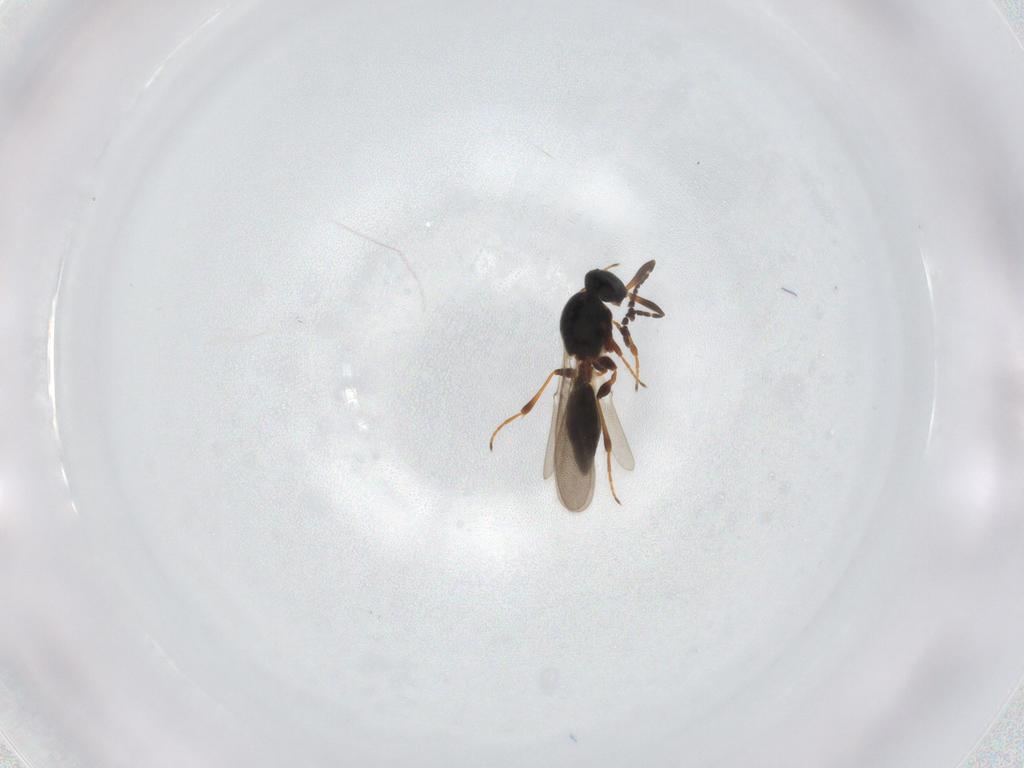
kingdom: Animalia
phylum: Arthropoda
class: Insecta
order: Hymenoptera
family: Platygastridae
